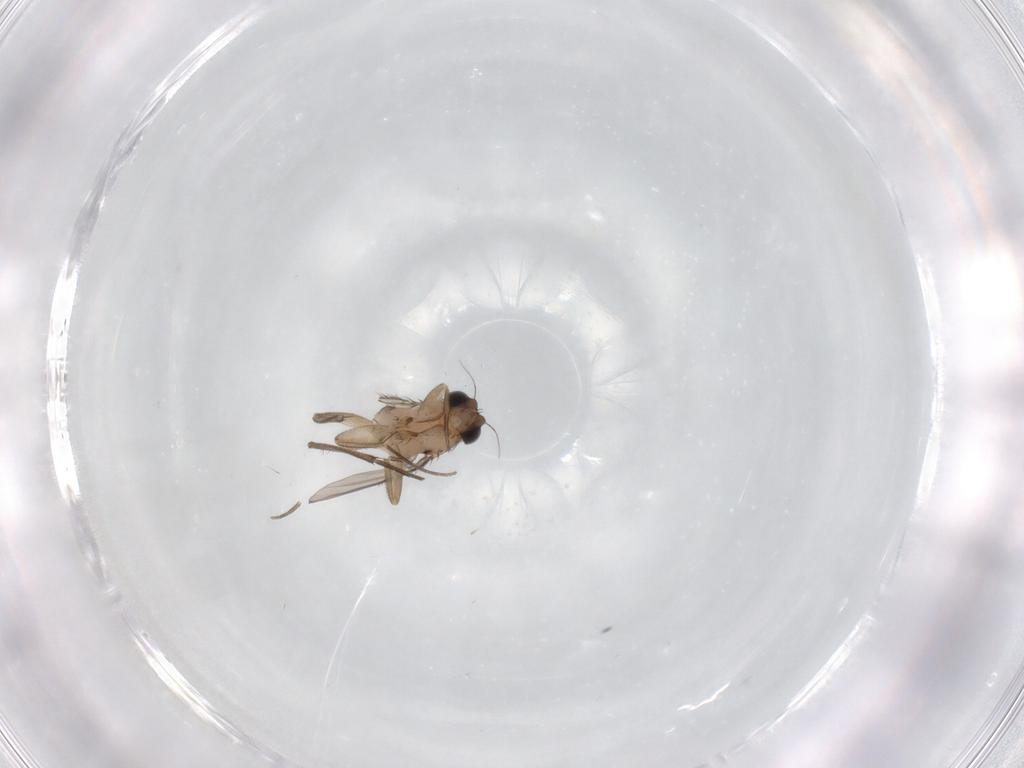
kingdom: Animalia
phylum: Arthropoda
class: Insecta
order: Diptera
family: Phoridae
